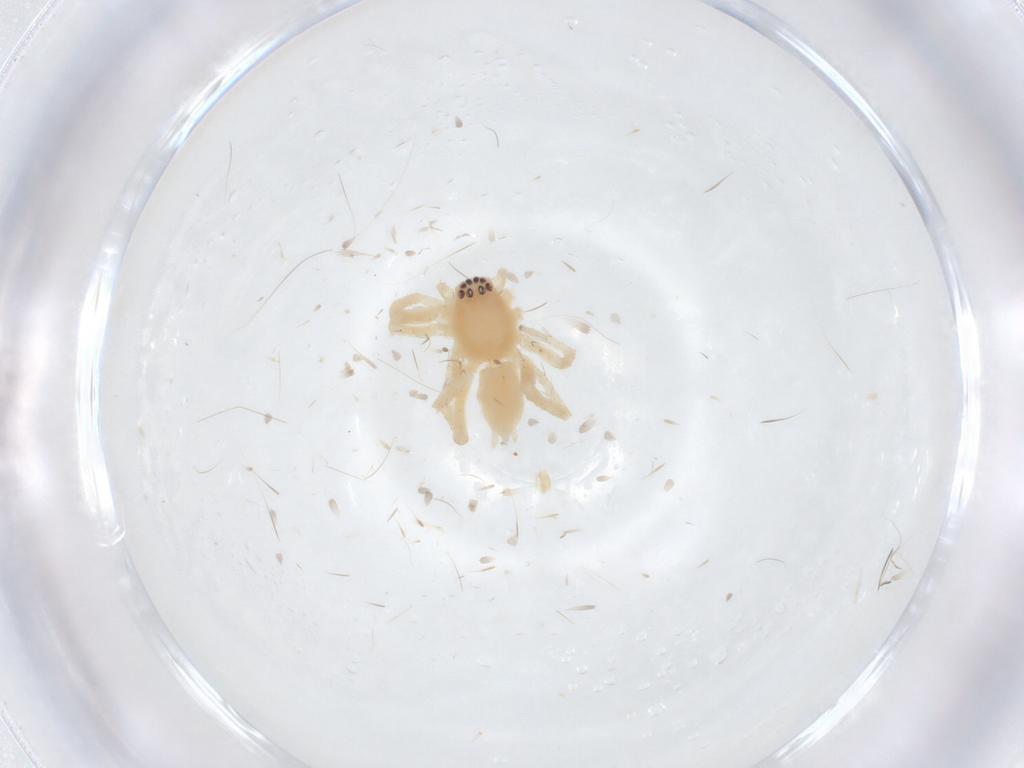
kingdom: Animalia
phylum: Arthropoda
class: Arachnida
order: Araneae
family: Anyphaenidae
